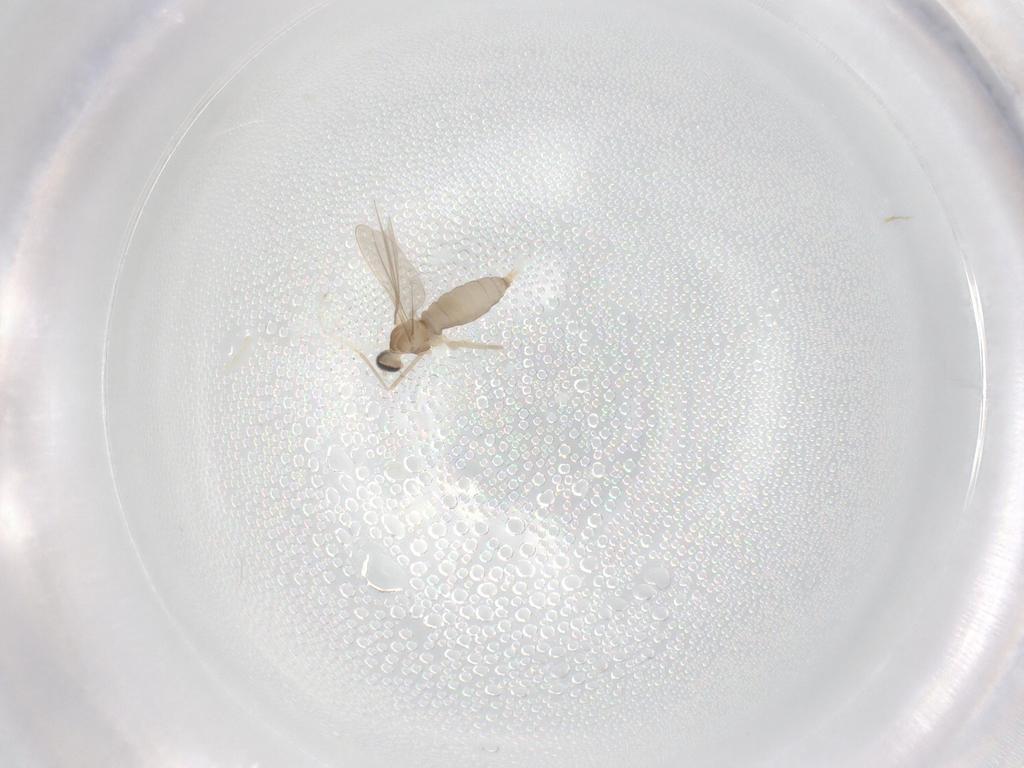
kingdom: Animalia
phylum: Arthropoda
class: Insecta
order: Diptera
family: Cecidomyiidae
